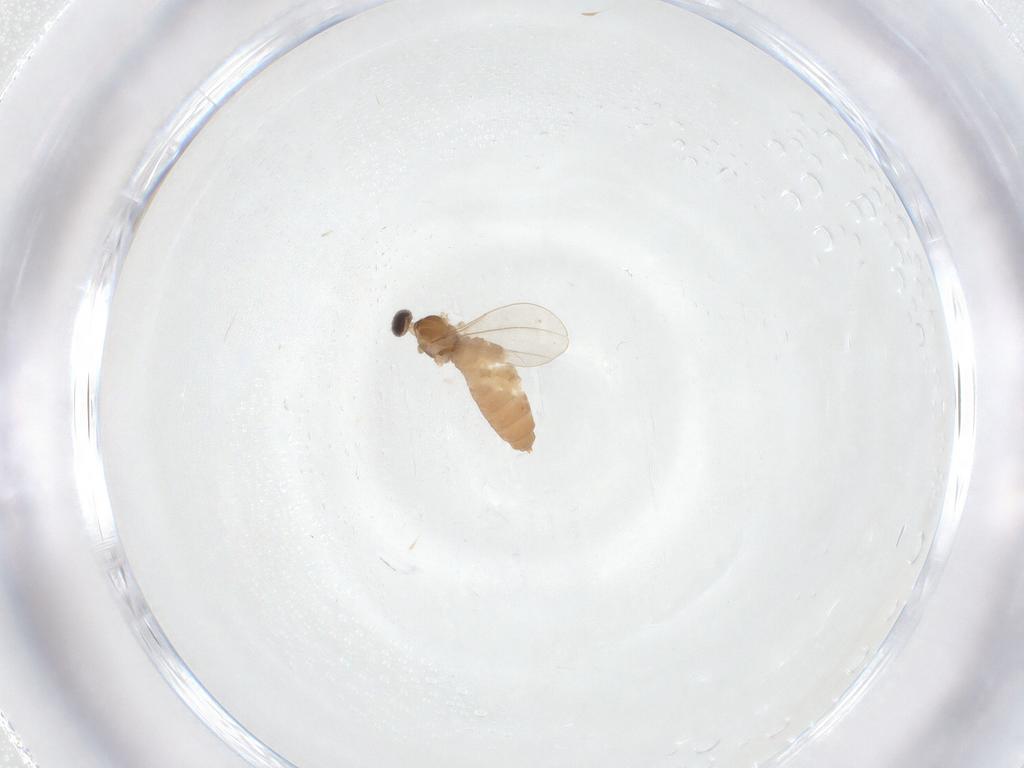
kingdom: Animalia
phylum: Arthropoda
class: Insecta
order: Diptera
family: Cecidomyiidae
